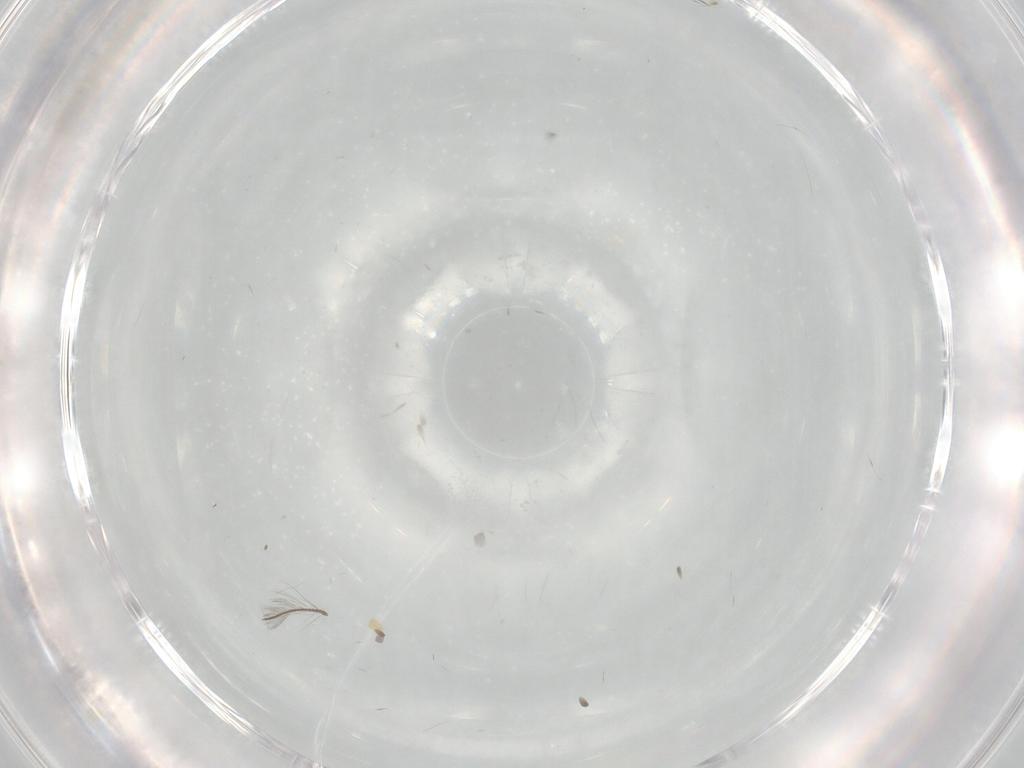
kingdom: Animalia
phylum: Arthropoda
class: Insecta
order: Diptera
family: Cecidomyiidae
